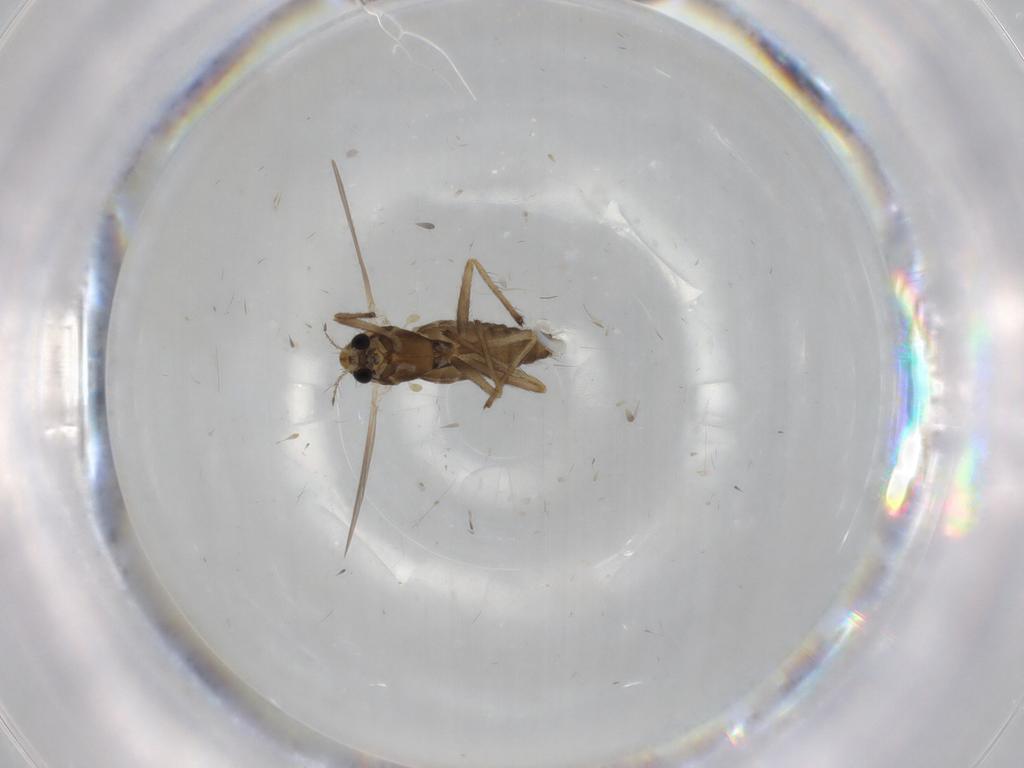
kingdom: Animalia
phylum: Arthropoda
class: Insecta
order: Diptera
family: Chironomidae
